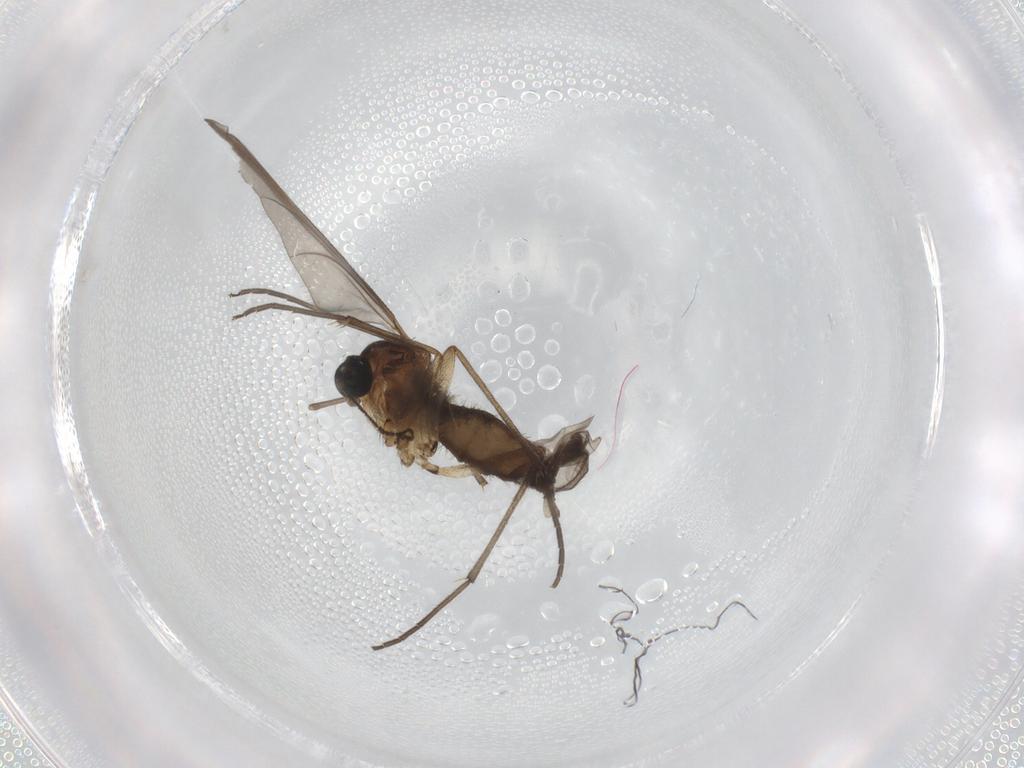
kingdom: Animalia
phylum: Arthropoda
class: Insecta
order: Diptera
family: Sciaridae
